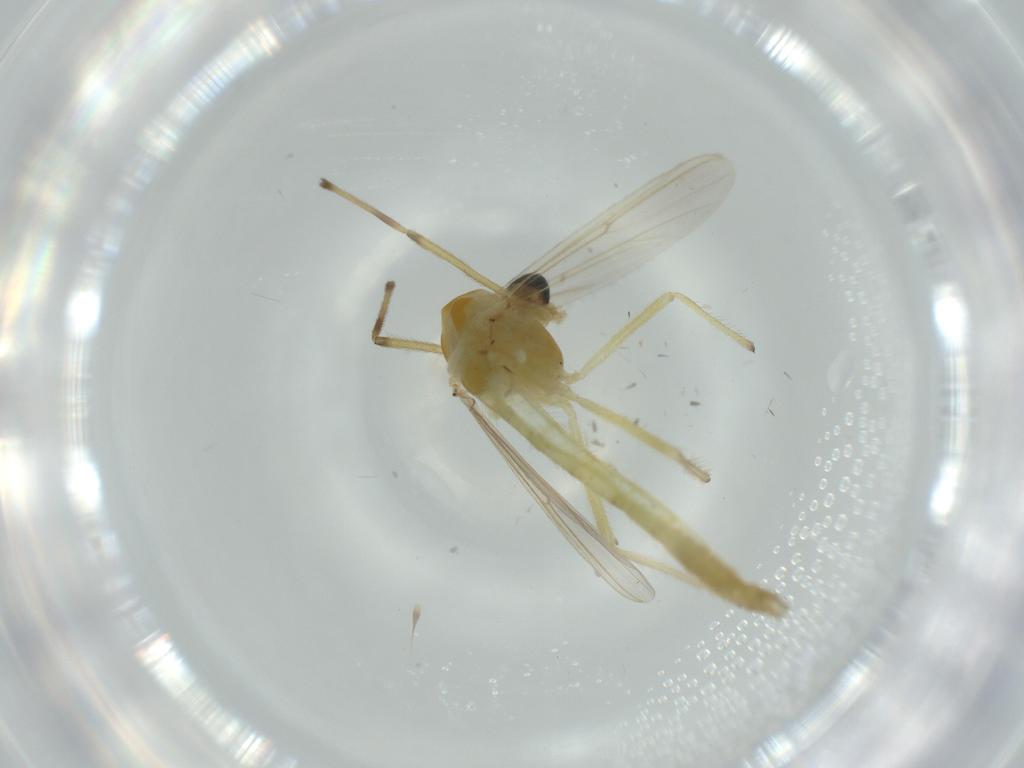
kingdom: Animalia
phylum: Arthropoda
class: Insecta
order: Diptera
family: Chironomidae
